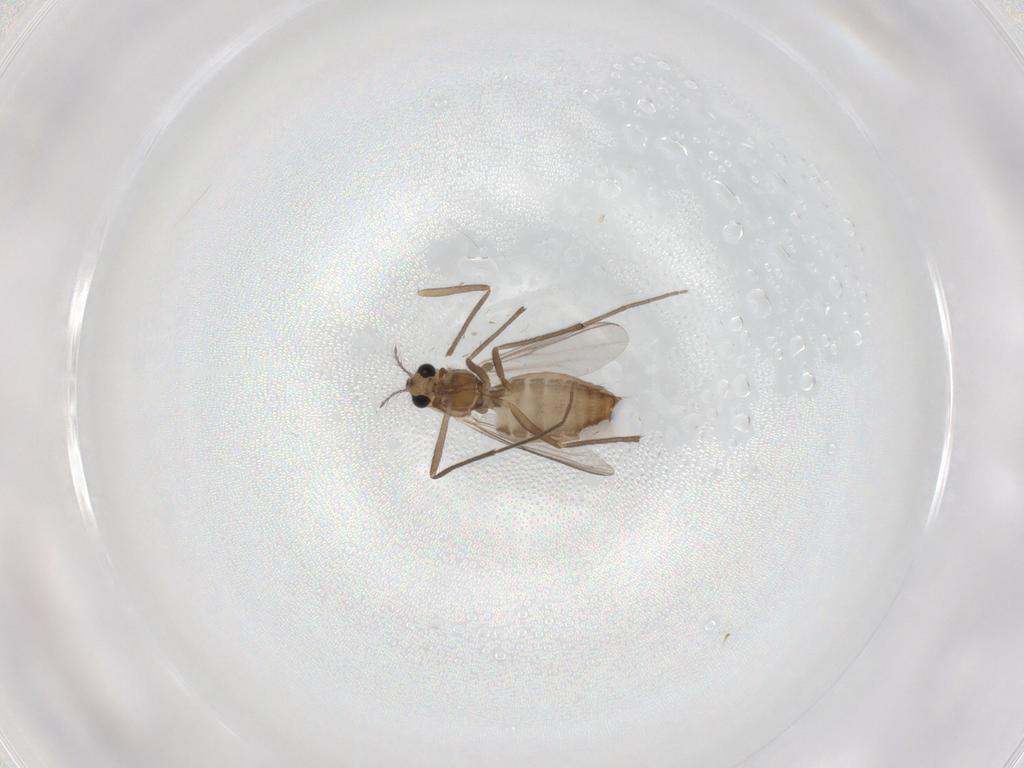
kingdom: Animalia
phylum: Arthropoda
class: Insecta
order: Diptera
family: Chironomidae
